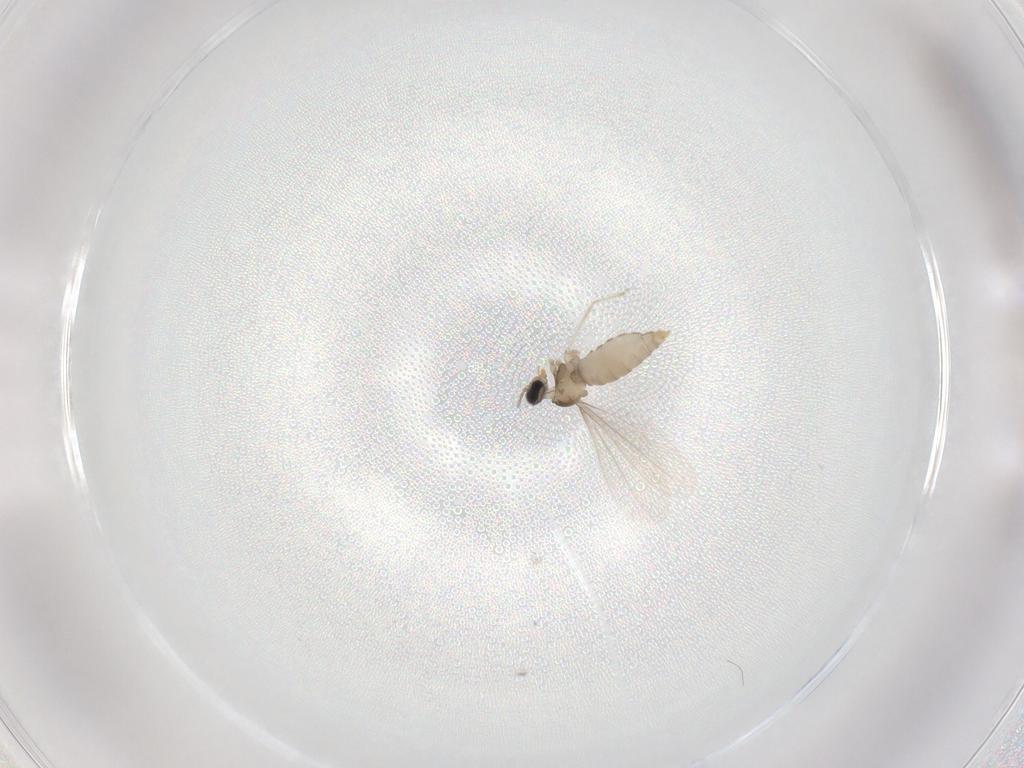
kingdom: Animalia
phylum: Arthropoda
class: Insecta
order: Diptera
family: Cecidomyiidae
